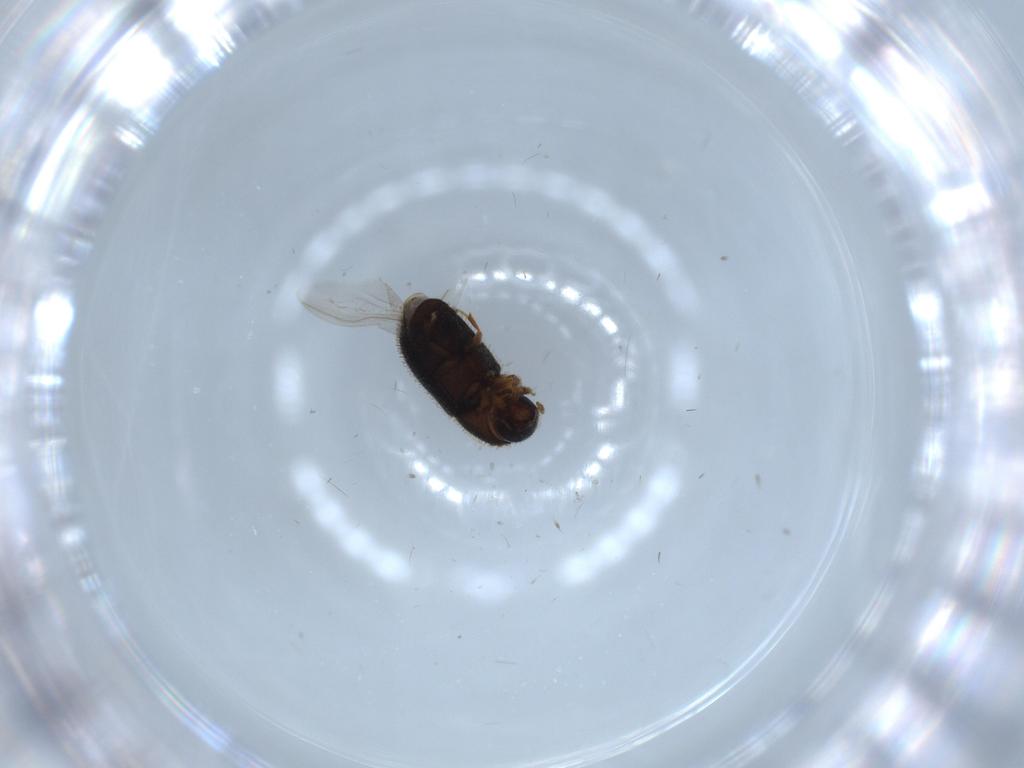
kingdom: Animalia
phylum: Arthropoda
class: Insecta
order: Coleoptera
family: Curculionidae
